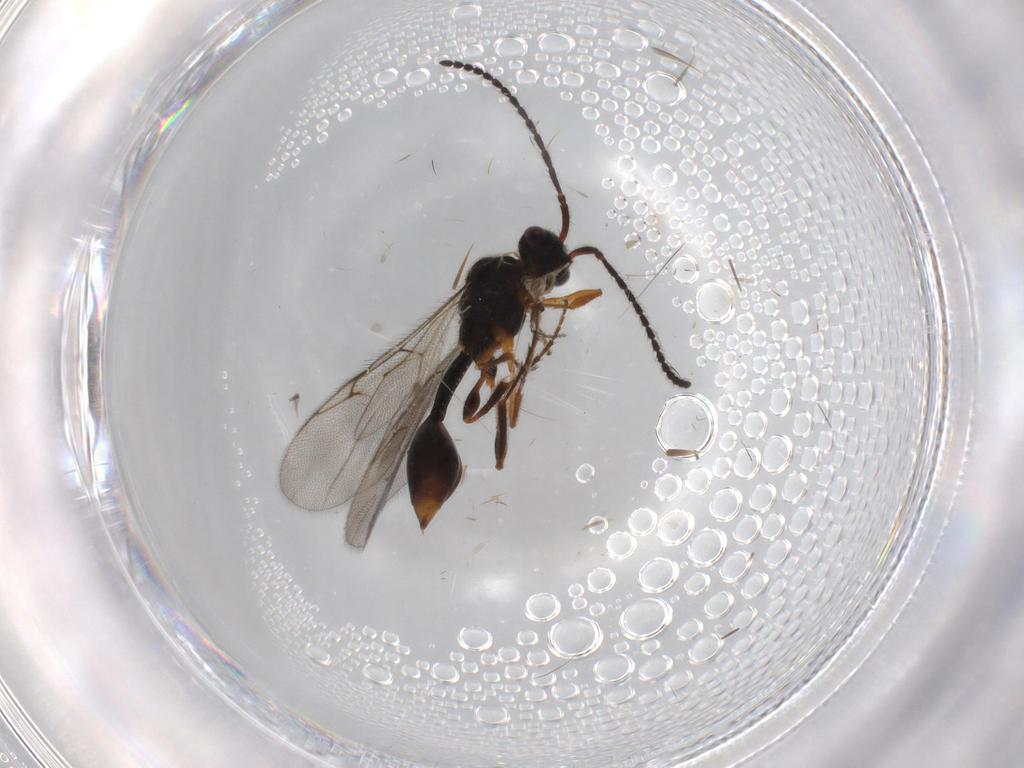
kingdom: Animalia
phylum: Arthropoda
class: Insecta
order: Hymenoptera
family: Diapriidae
